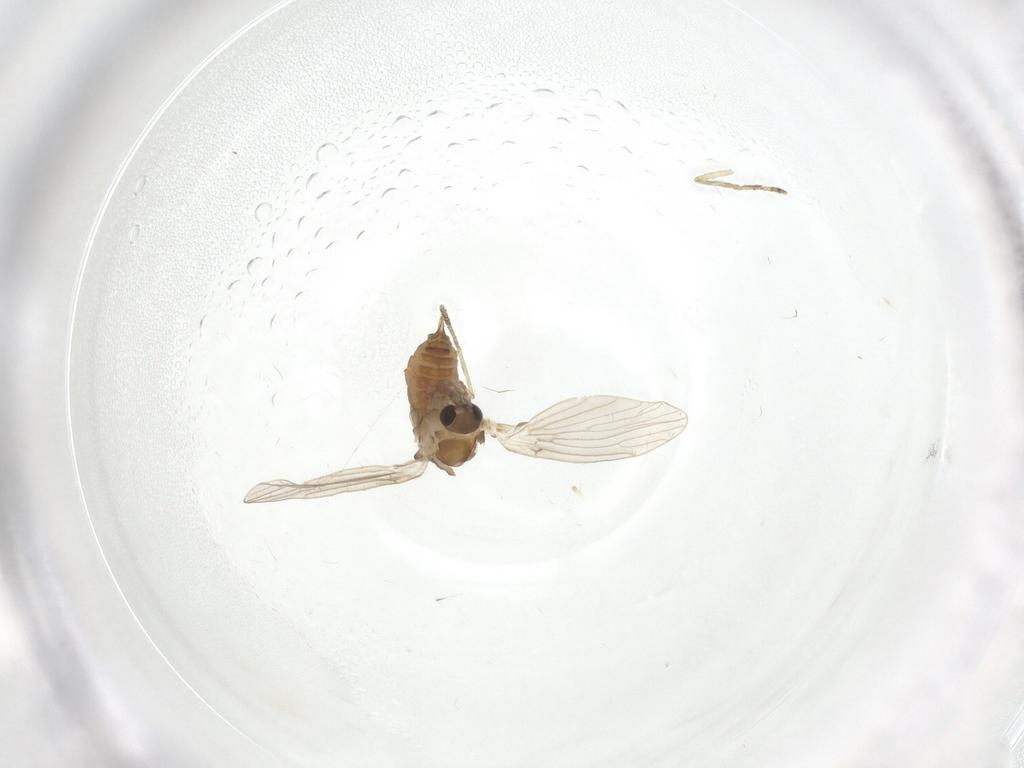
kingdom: Animalia
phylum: Arthropoda
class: Insecta
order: Diptera
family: Psychodidae
